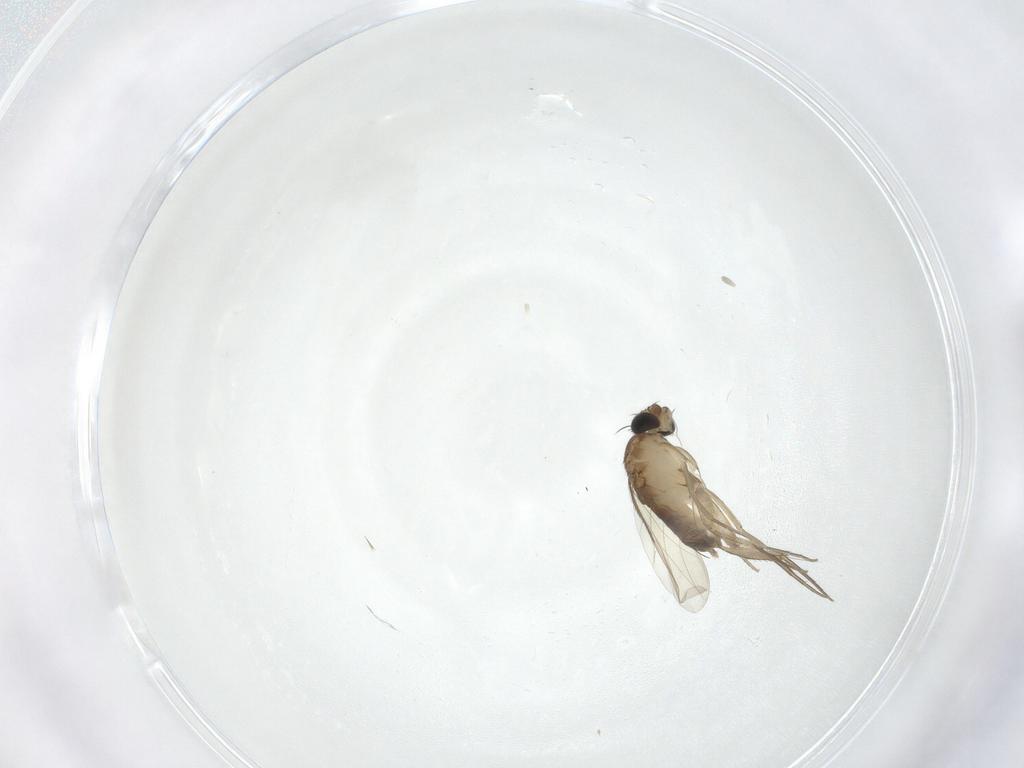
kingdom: Animalia
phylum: Arthropoda
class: Insecta
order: Diptera
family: Phoridae
